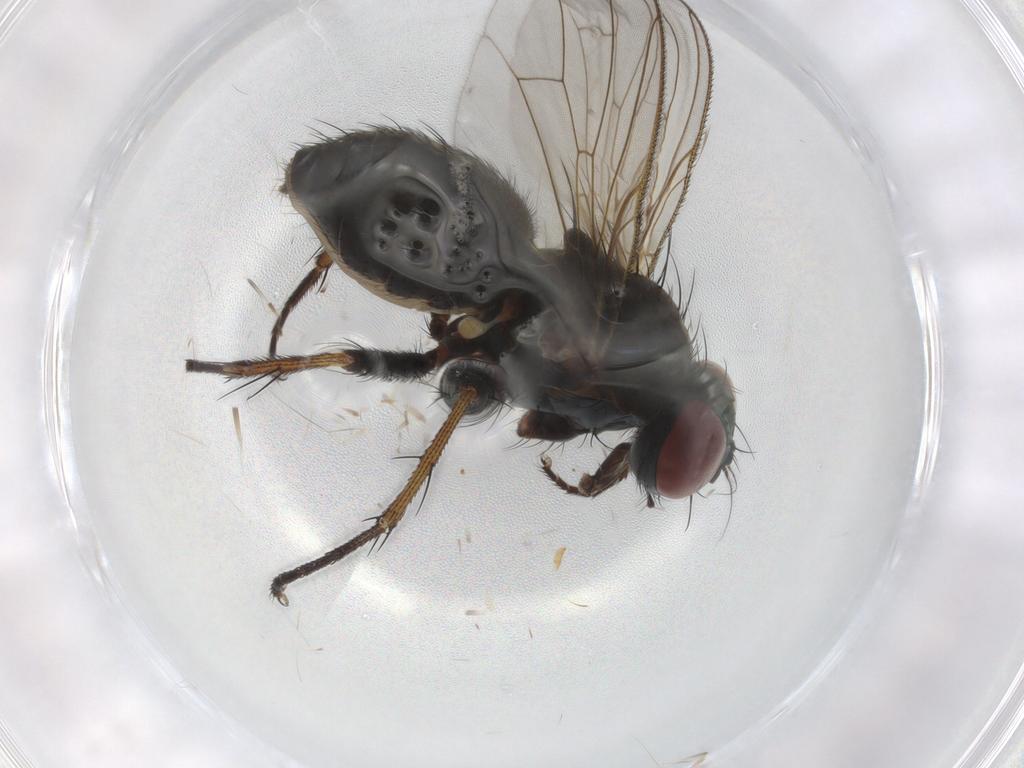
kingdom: Animalia
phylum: Arthropoda
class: Insecta
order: Diptera
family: Muscidae
